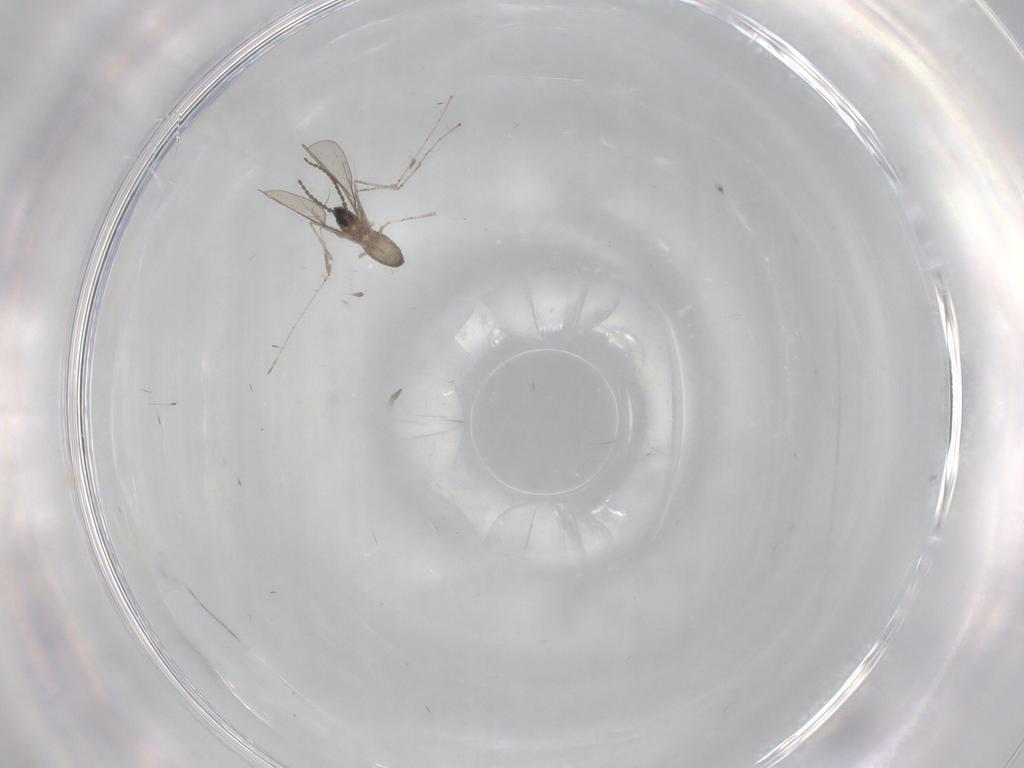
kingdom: Animalia
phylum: Arthropoda
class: Insecta
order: Diptera
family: Cecidomyiidae
